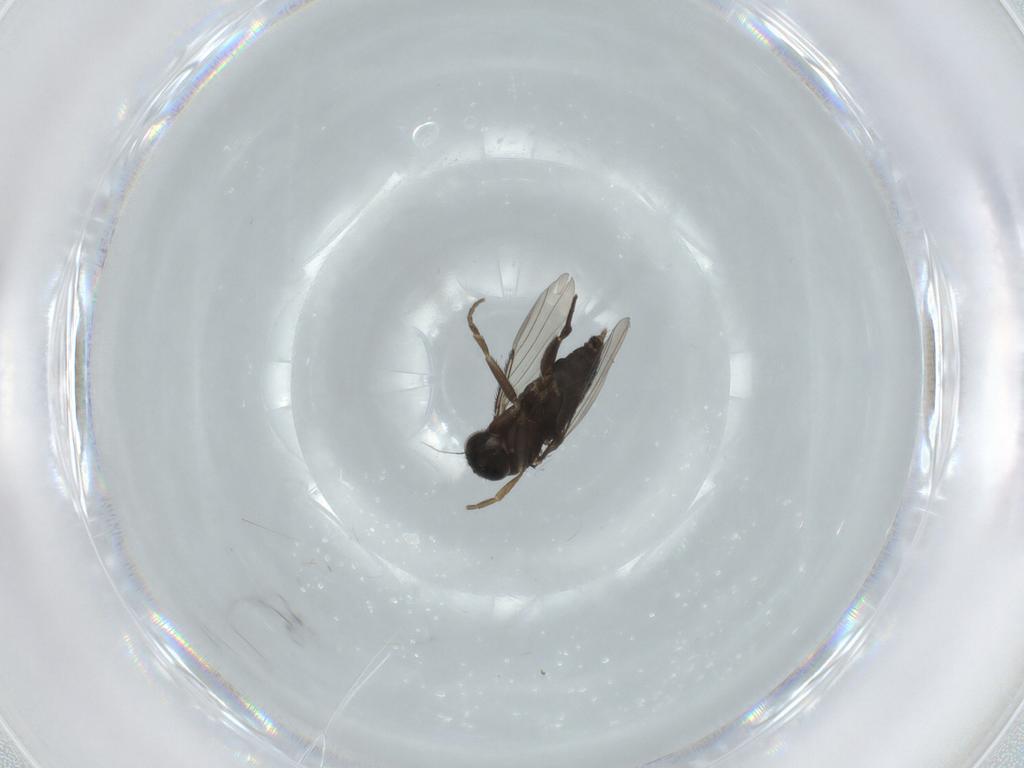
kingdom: Animalia
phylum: Arthropoda
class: Insecta
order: Diptera
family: Phoridae
